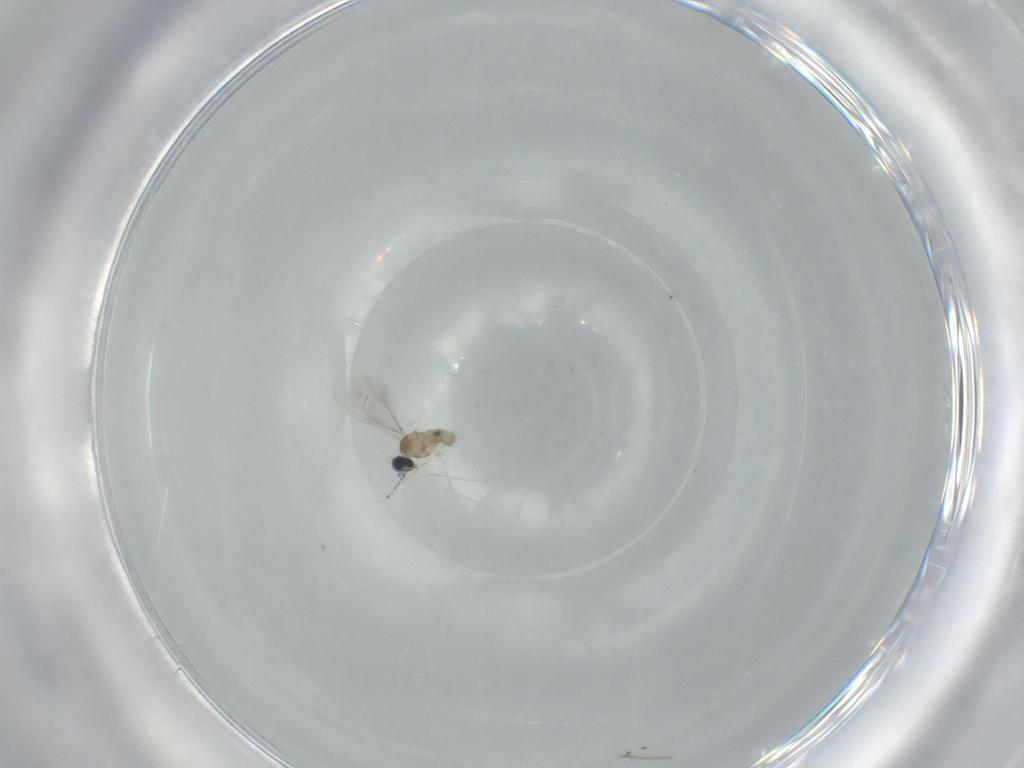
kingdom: Animalia
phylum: Arthropoda
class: Insecta
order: Diptera
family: Cecidomyiidae
